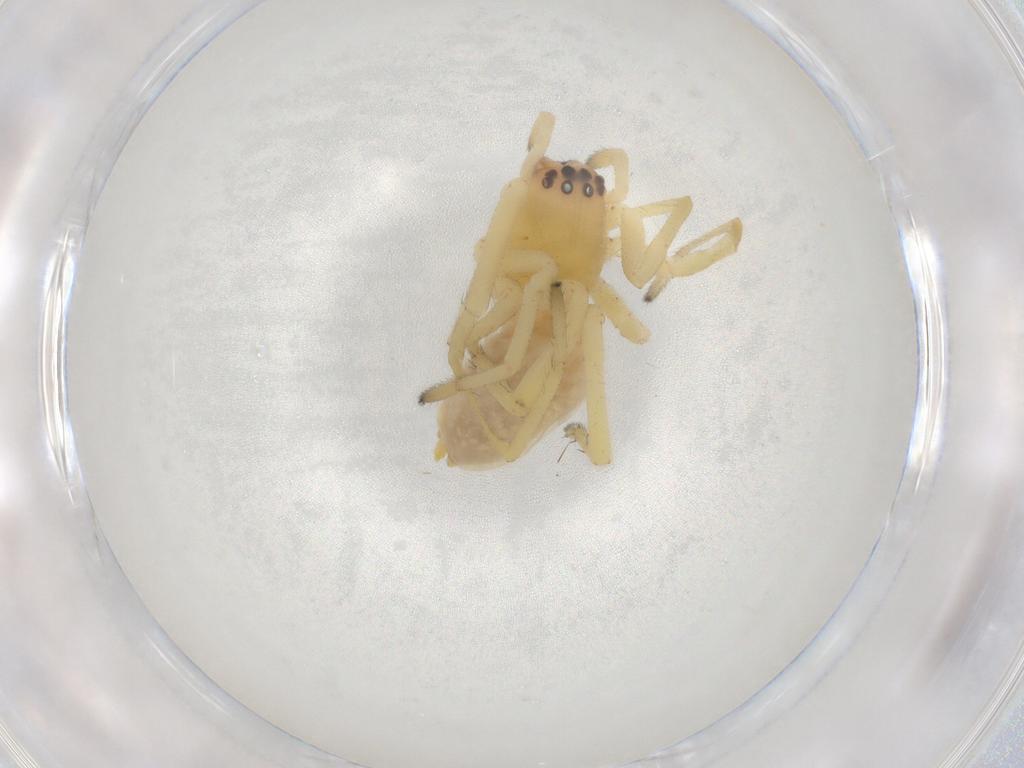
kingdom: Animalia
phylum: Arthropoda
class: Arachnida
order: Araneae
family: Cheiracanthiidae
